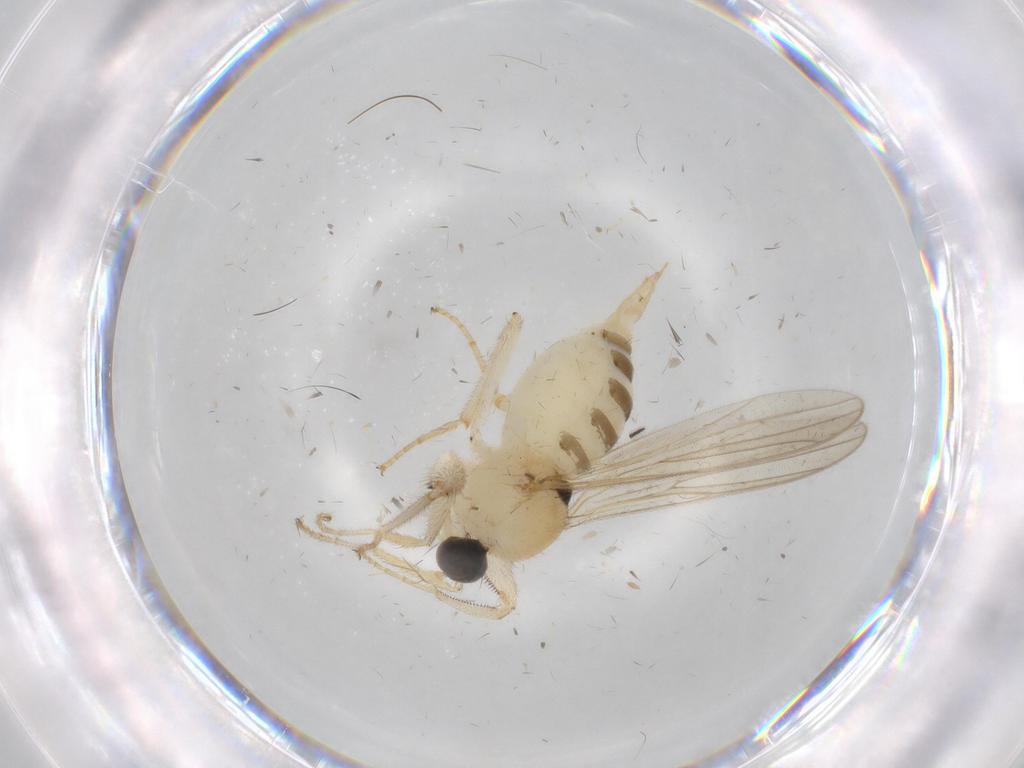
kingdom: Animalia
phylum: Arthropoda
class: Insecta
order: Diptera
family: Hybotidae
